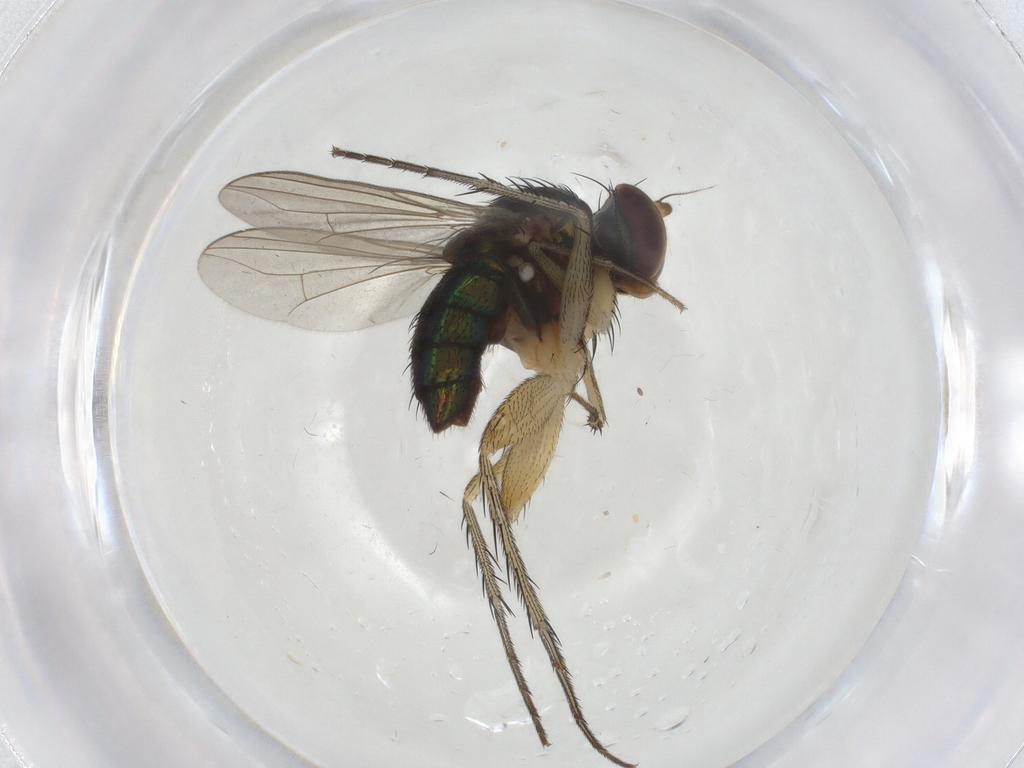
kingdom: Animalia
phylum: Arthropoda
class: Insecta
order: Diptera
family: Dolichopodidae
